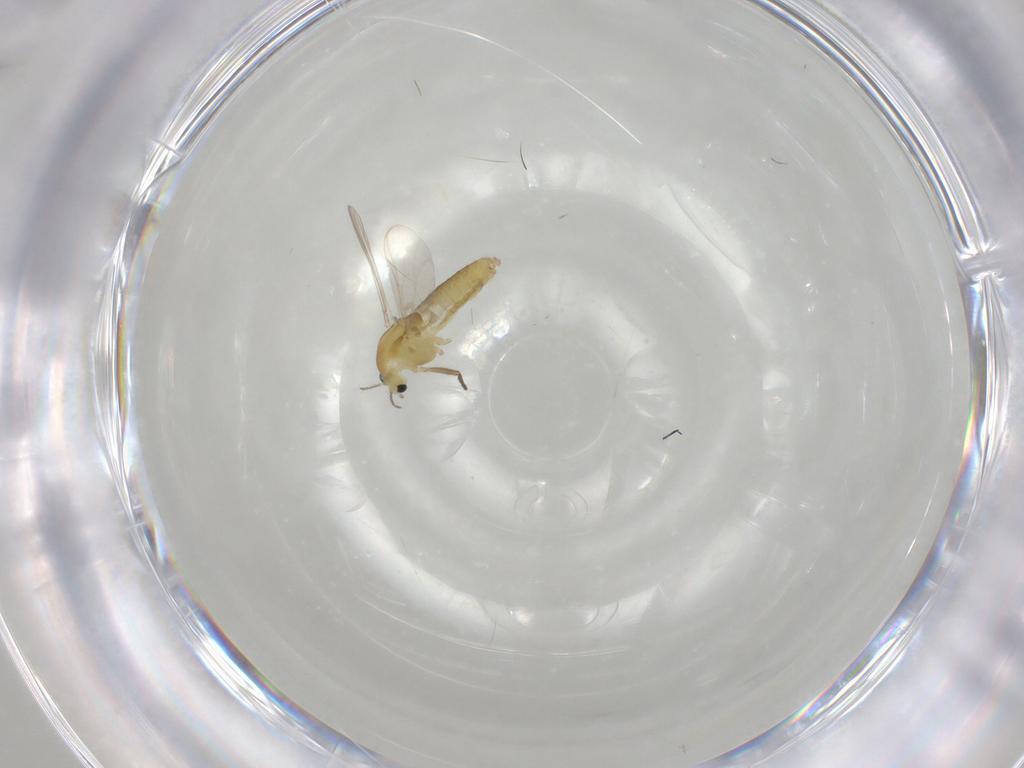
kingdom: Animalia
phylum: Arthropoda
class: Insecta
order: Diptera
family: Chironomidae
